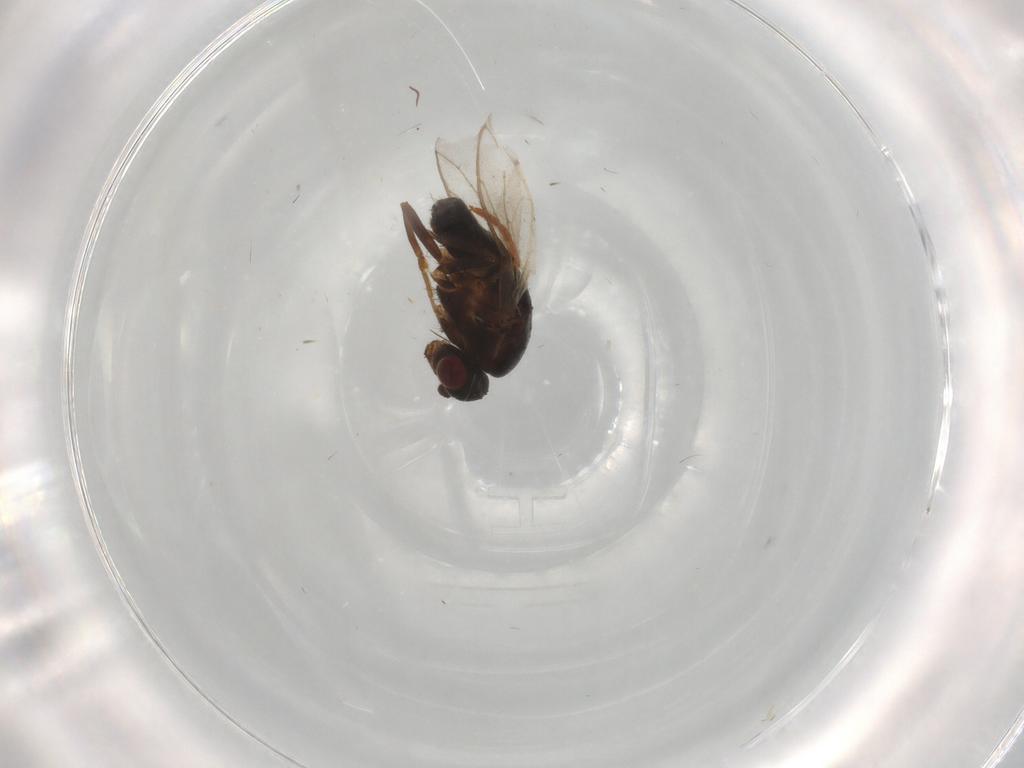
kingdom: Animalia
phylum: Arthropoda
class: Insecta
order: Diptera
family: Sphaeroceridae
